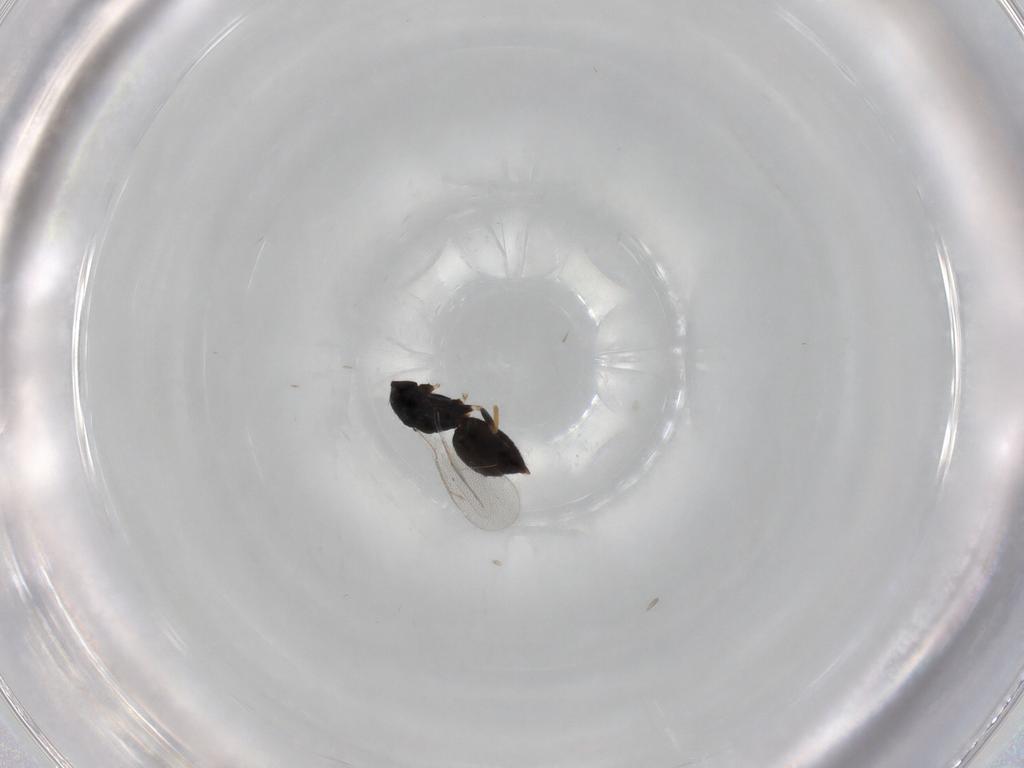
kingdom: Animalia
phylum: Arthropoda
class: Insecta
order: Hymenoptera
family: Eulophidae
